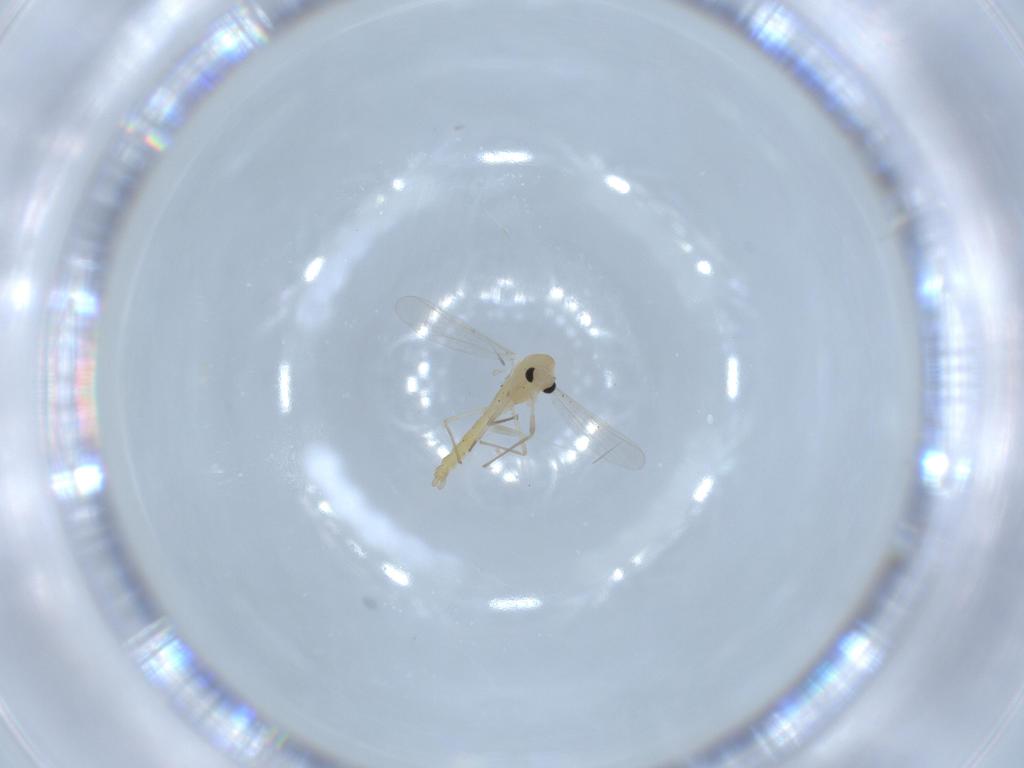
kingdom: Animalia
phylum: Arthropoda
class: Insecta
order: Diptera
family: Chironomidae
